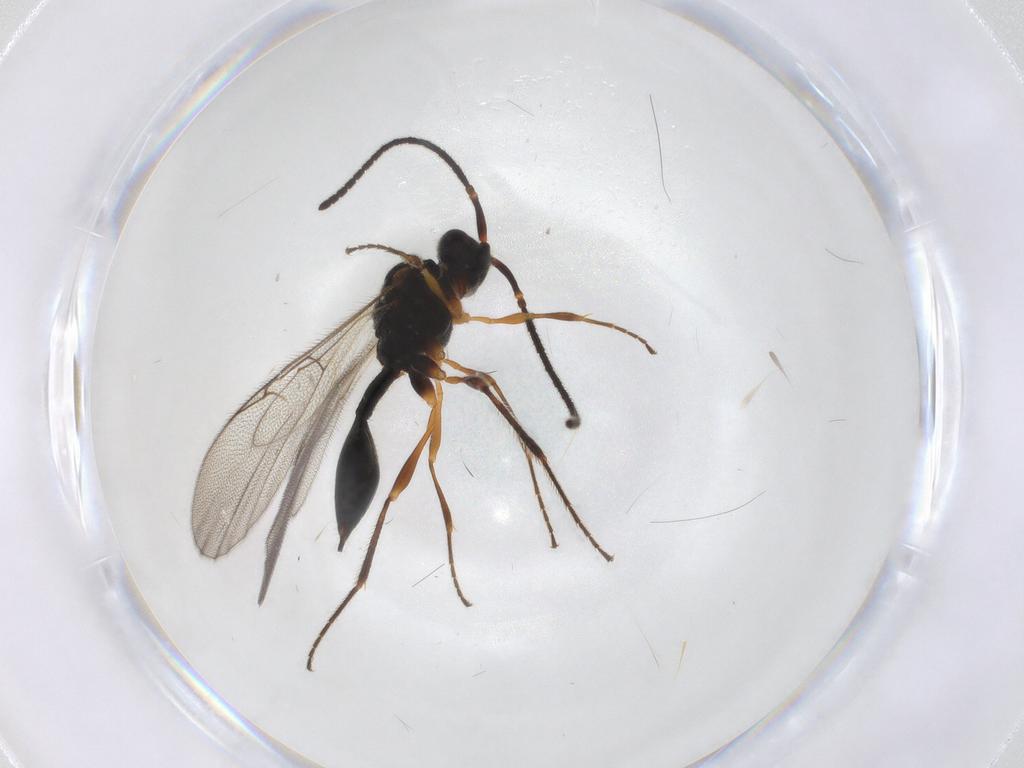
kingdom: Animalia
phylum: Arthropoda
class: Insecta
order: Hymenoptera
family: Diapriidae
